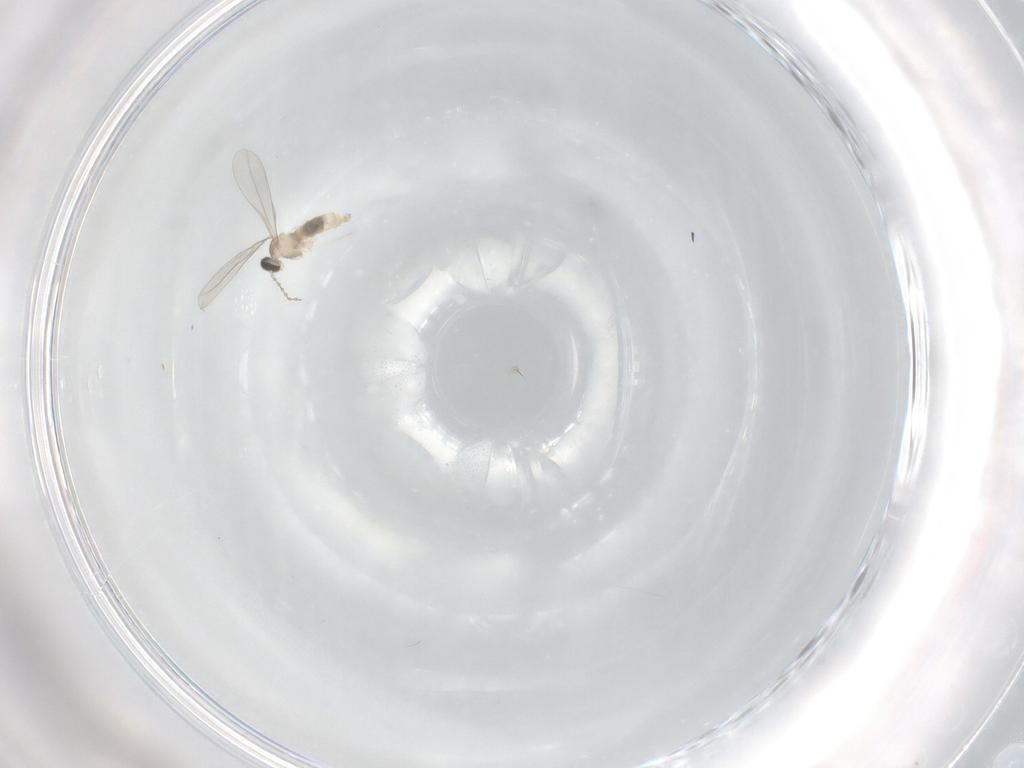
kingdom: Animalia
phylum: Arthropoda
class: Insecta
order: Diptera
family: Cecidomyiidae
